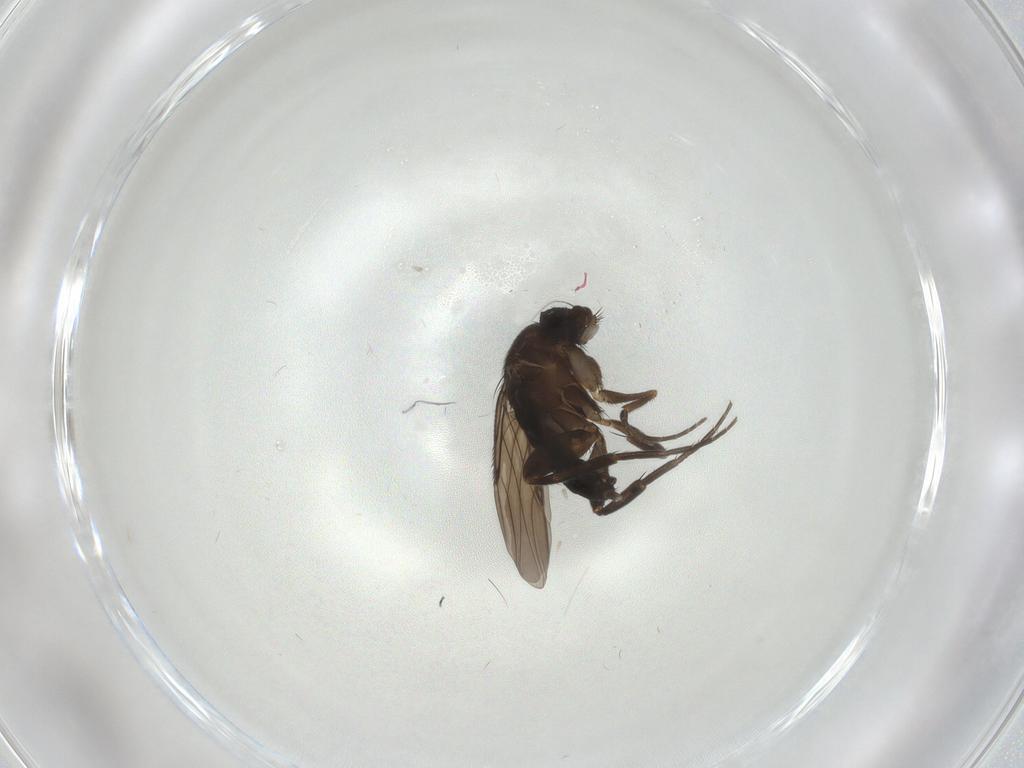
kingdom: Animalia
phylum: Arthropoda
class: Insecta
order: Diptera
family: Phoridae
